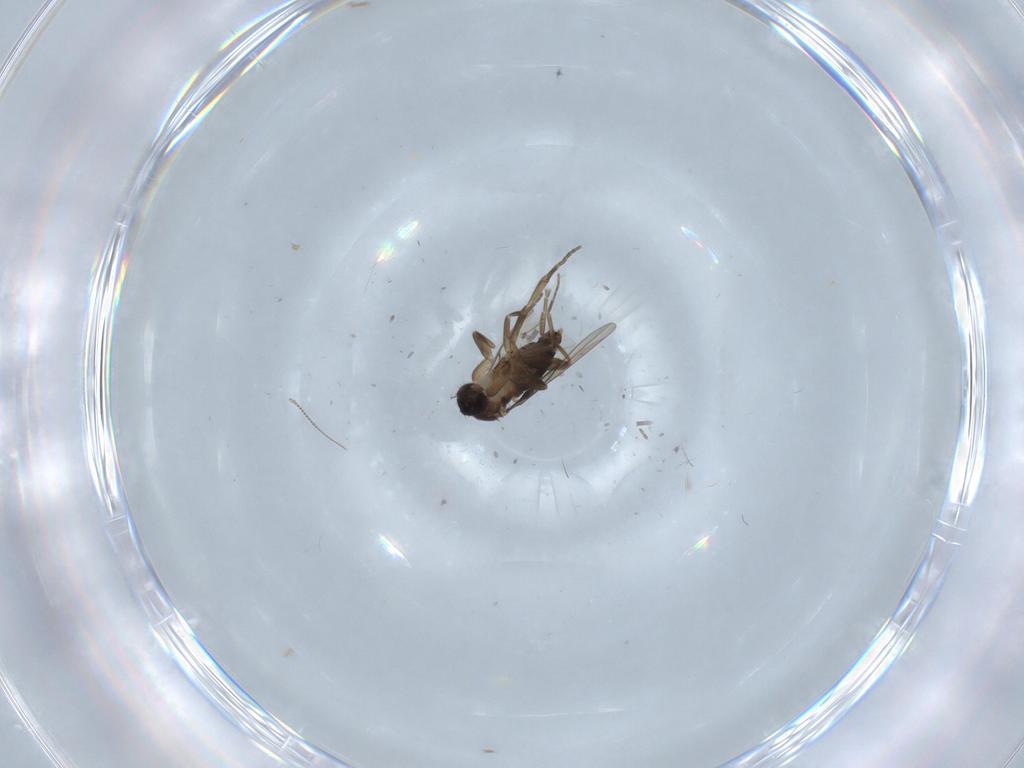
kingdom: Animalia
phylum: Arthropoda
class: Insecta
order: Diptera
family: Phoridae
